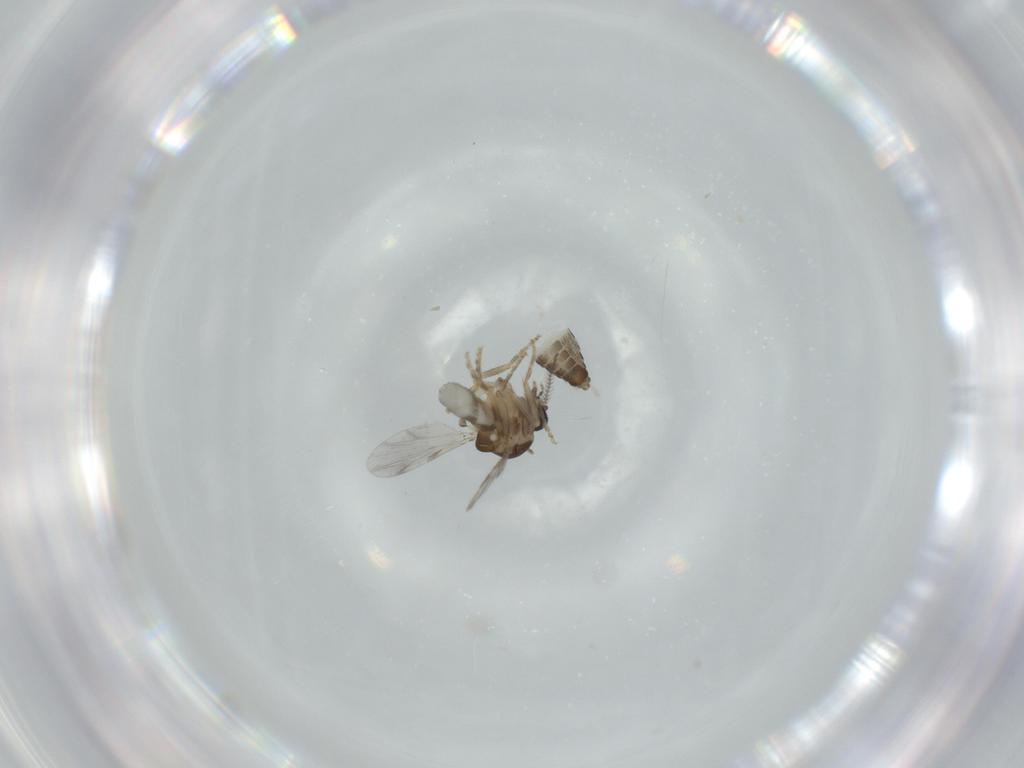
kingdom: Animalia
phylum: Arthropoda
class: Insecta
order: Diptera
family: Ceratopogonidae
